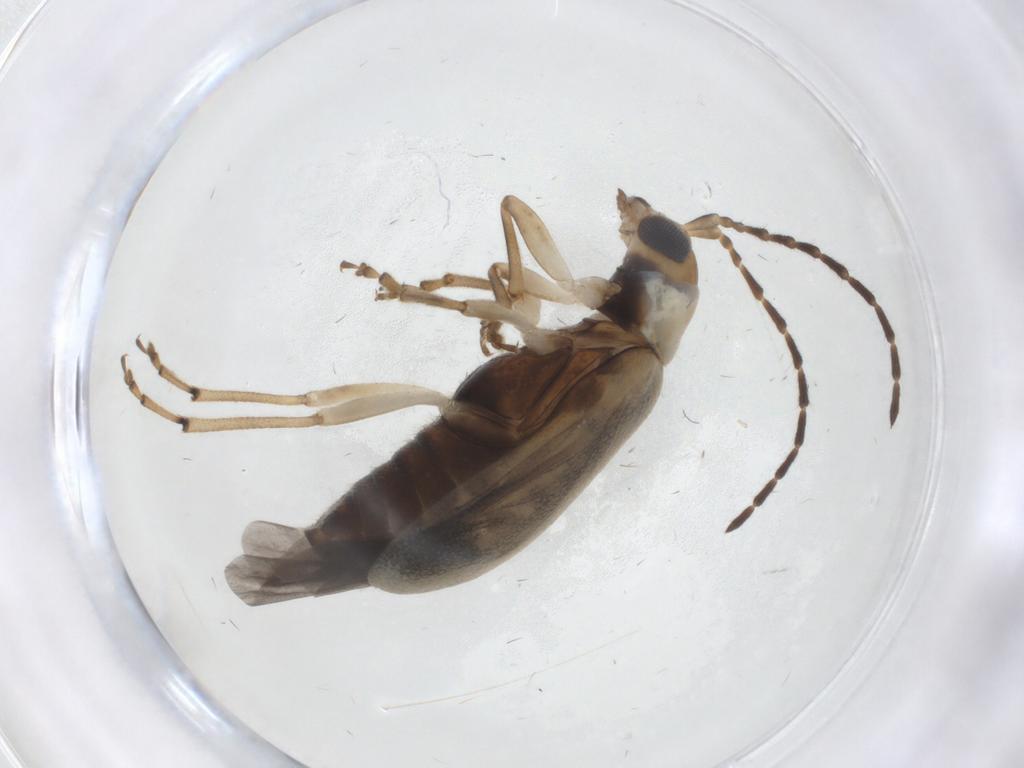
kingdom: Animalia
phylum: Arthropoda
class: Insecta
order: Coleoptera
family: Chrysomelidae
